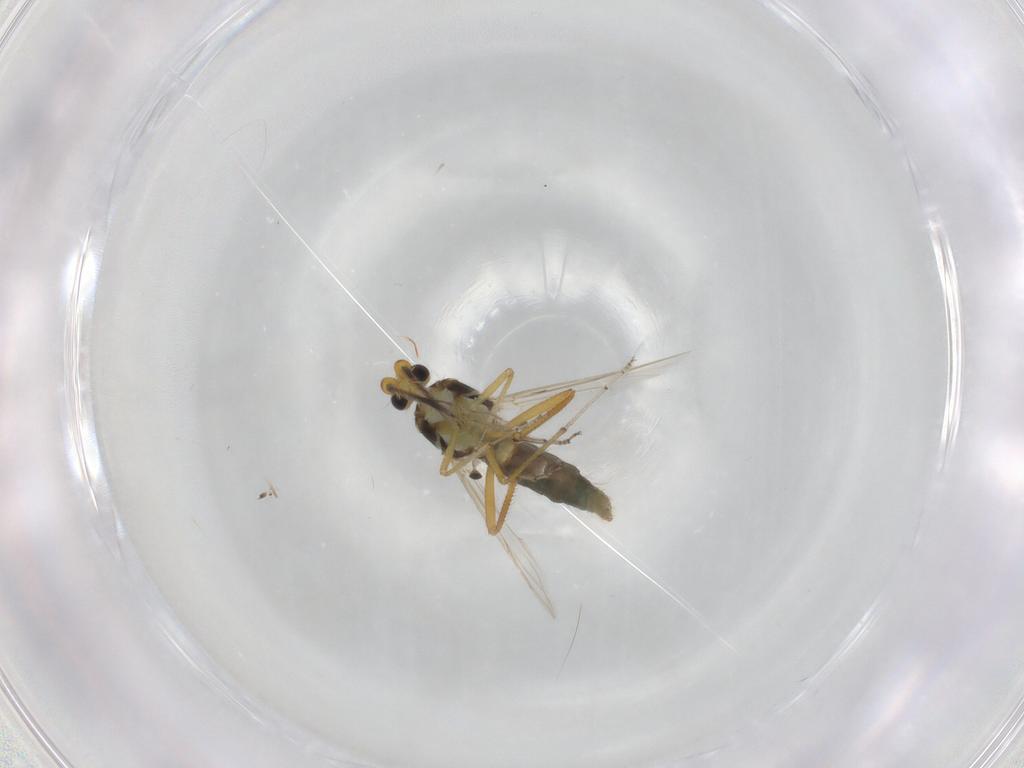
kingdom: Animalia
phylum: Arthropoda
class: Insecta
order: Diptera
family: Ceratopogonidae
